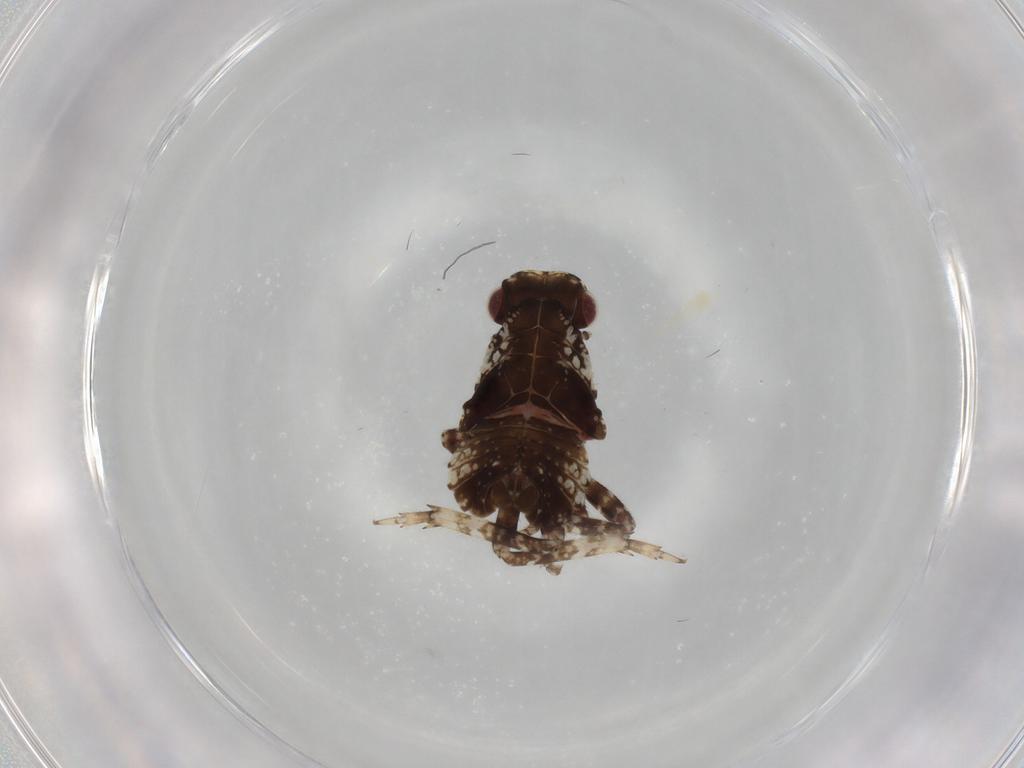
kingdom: Animalia
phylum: Arthropoda
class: Insecta
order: Hemiptera
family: Fulgoridae
